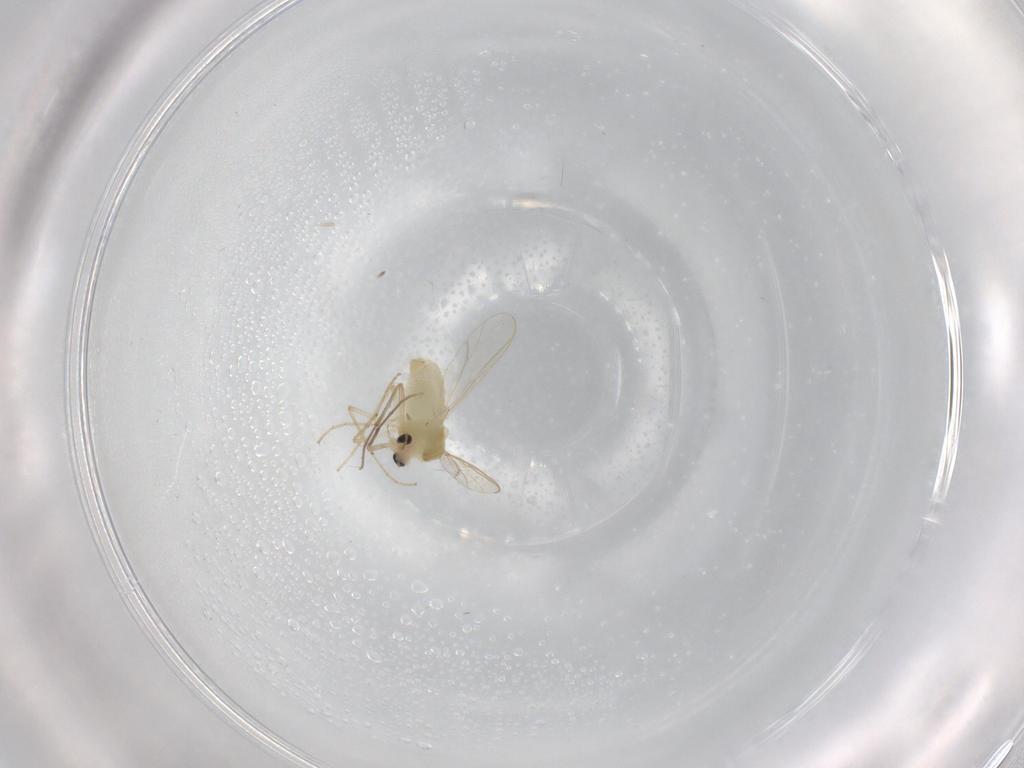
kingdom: Animalia
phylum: Arthropoda
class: Insecta
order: Diptera
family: Chironomidae
